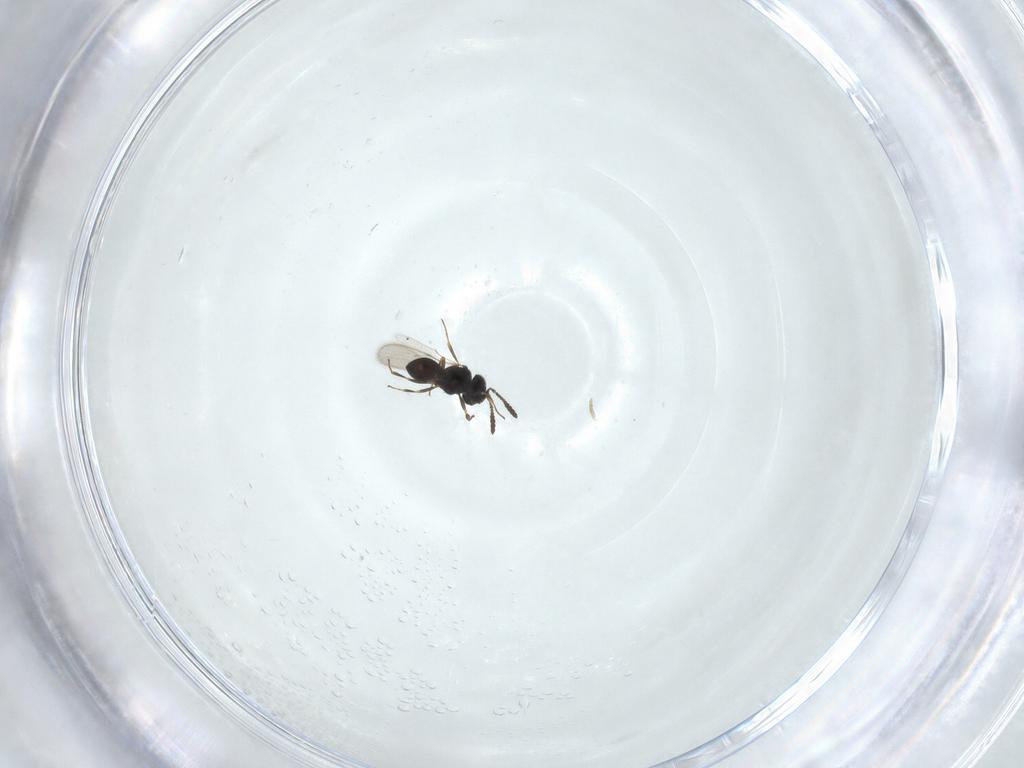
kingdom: Animalia
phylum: Arthropoda
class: Insecta
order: Hymenoptera
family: Scelionidae
